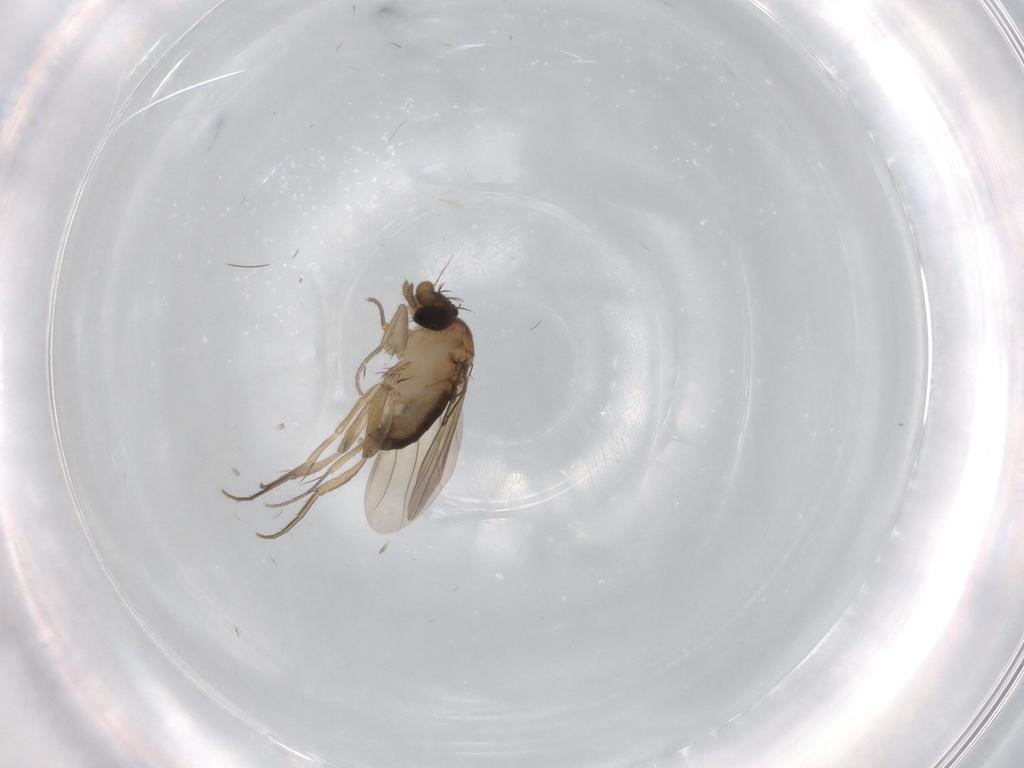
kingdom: Animalia
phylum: Arthropoda
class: Insecta
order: Diptera
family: Phoridae
